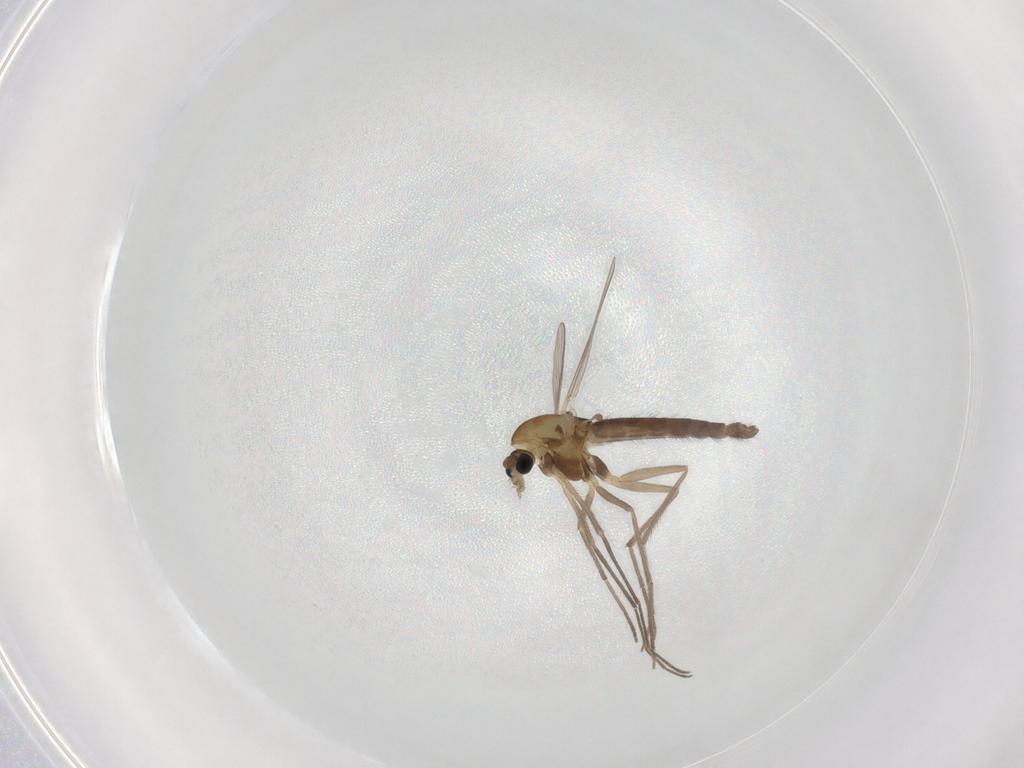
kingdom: Animalia
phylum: Arthropoda
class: Insecta
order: Diptera
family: Chironomidae
